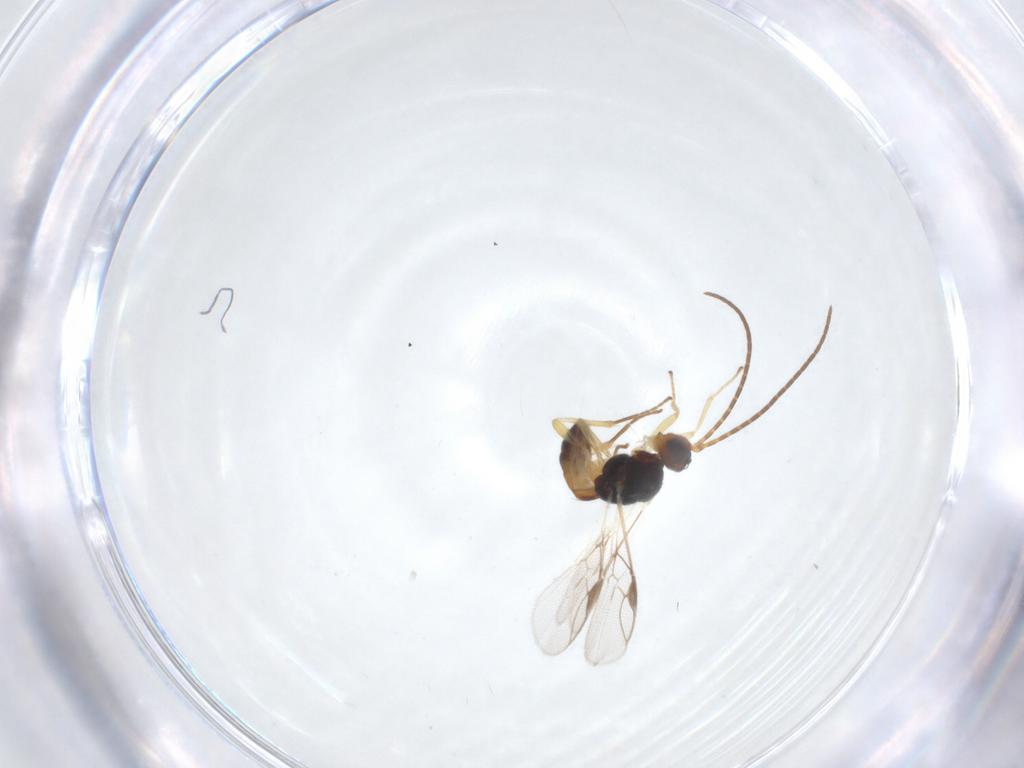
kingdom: Animalia
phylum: Arthropoda
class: Insecta
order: Hymenoptera
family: Braconidae
